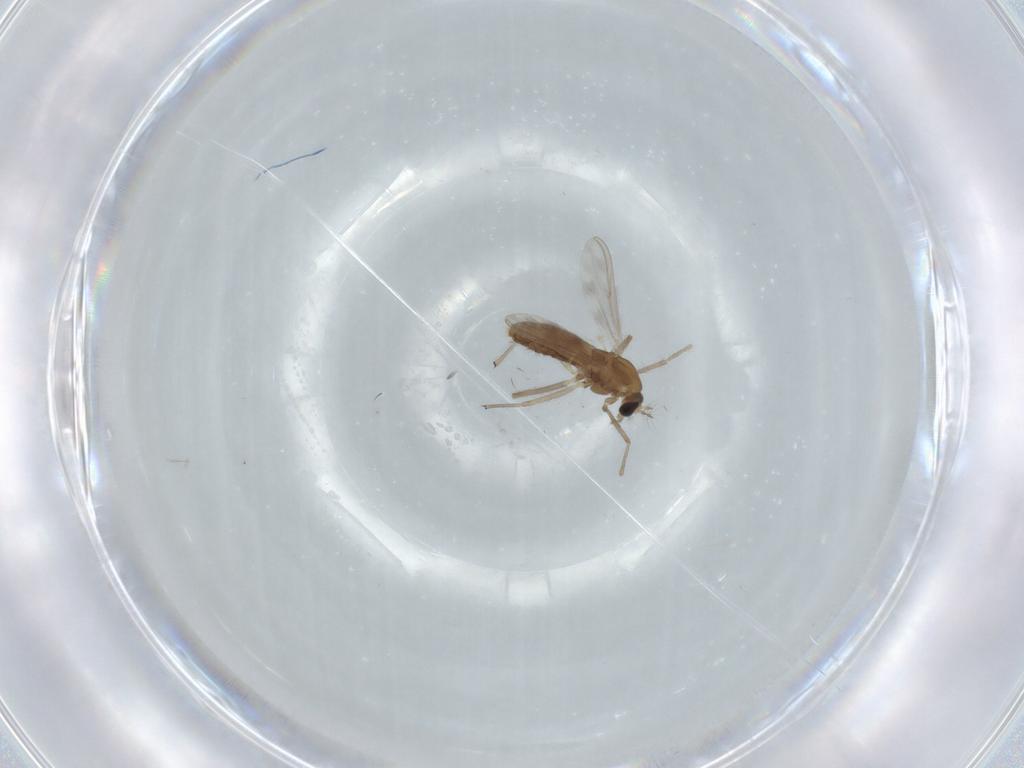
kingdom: Animalia
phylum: Arthropoda
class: Insecta
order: Diptera
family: Chironomidae
